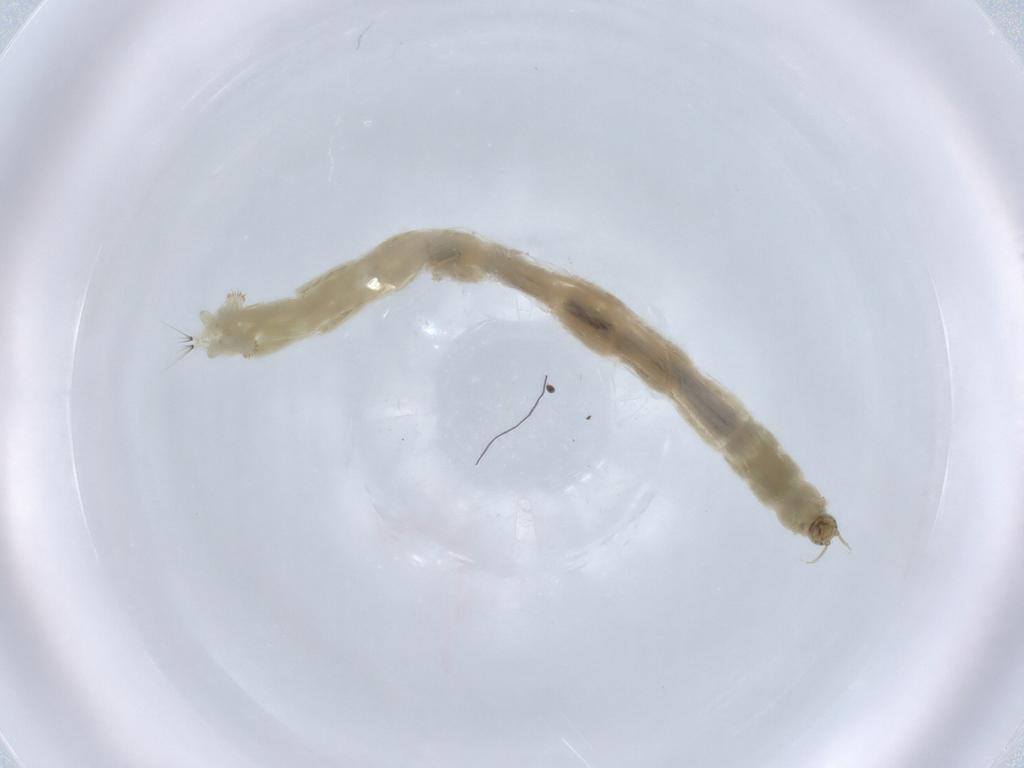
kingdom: Animalia
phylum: Arthropoda
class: Insecta
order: Diptera
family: Chironomidae
